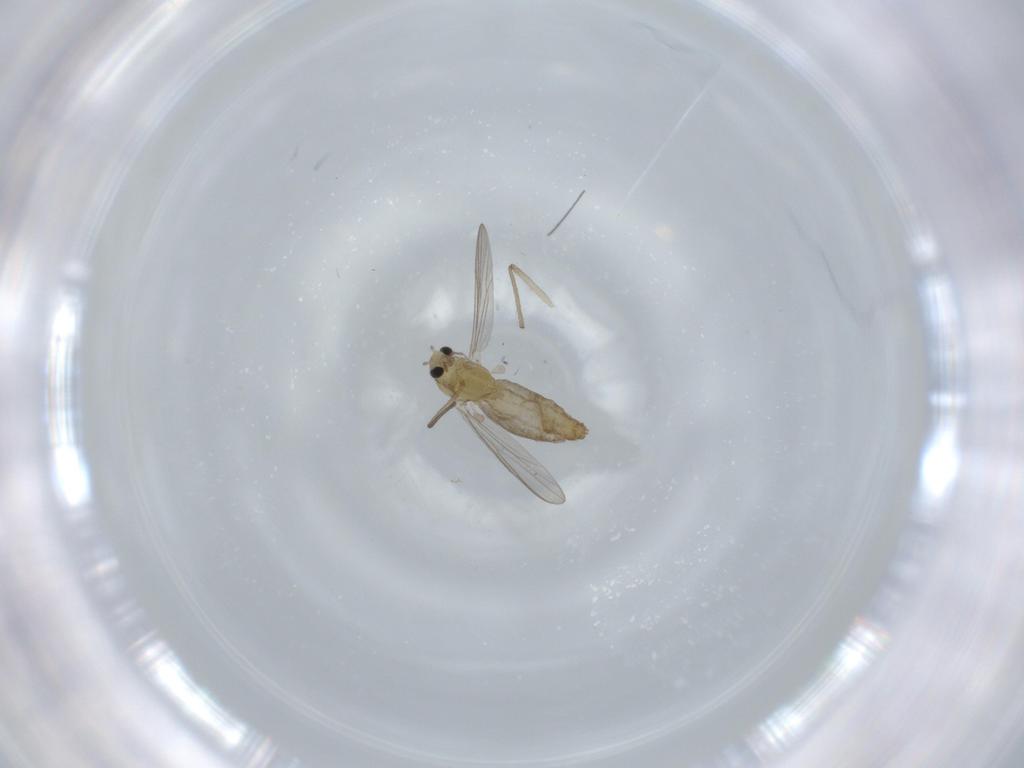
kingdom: Animalia
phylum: Arthropoda
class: Insecta
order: Diptera
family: Chironomidae
